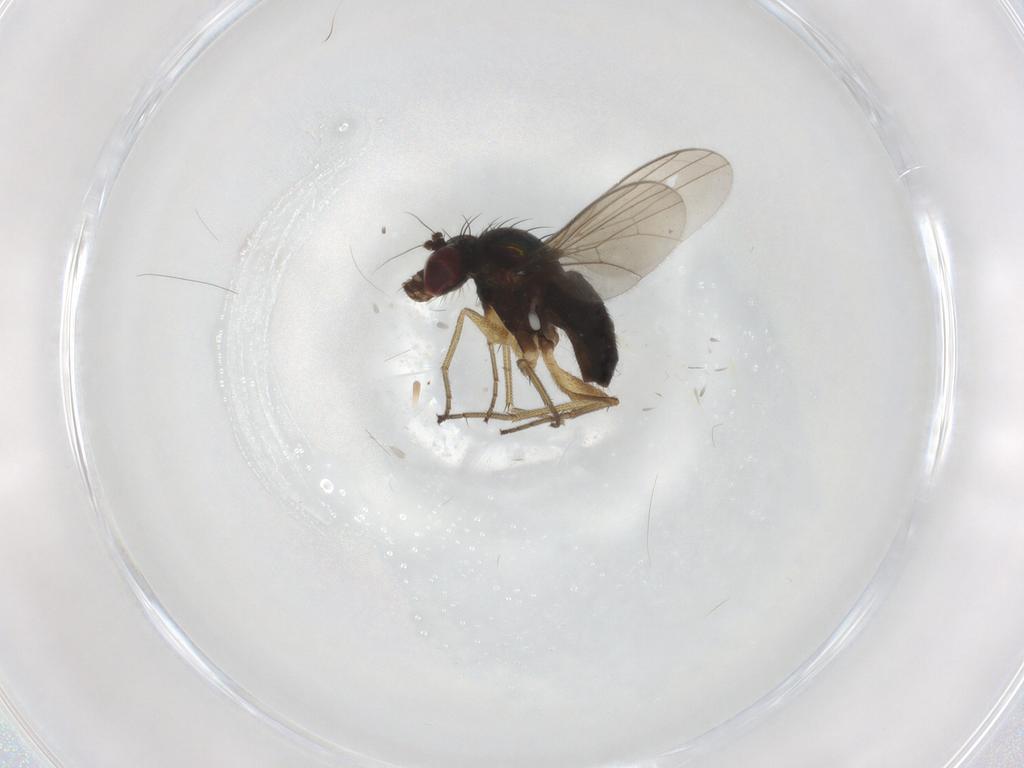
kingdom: Animalia
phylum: Arthropoda
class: Insecta
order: Diptera
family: Dolichopodidae
